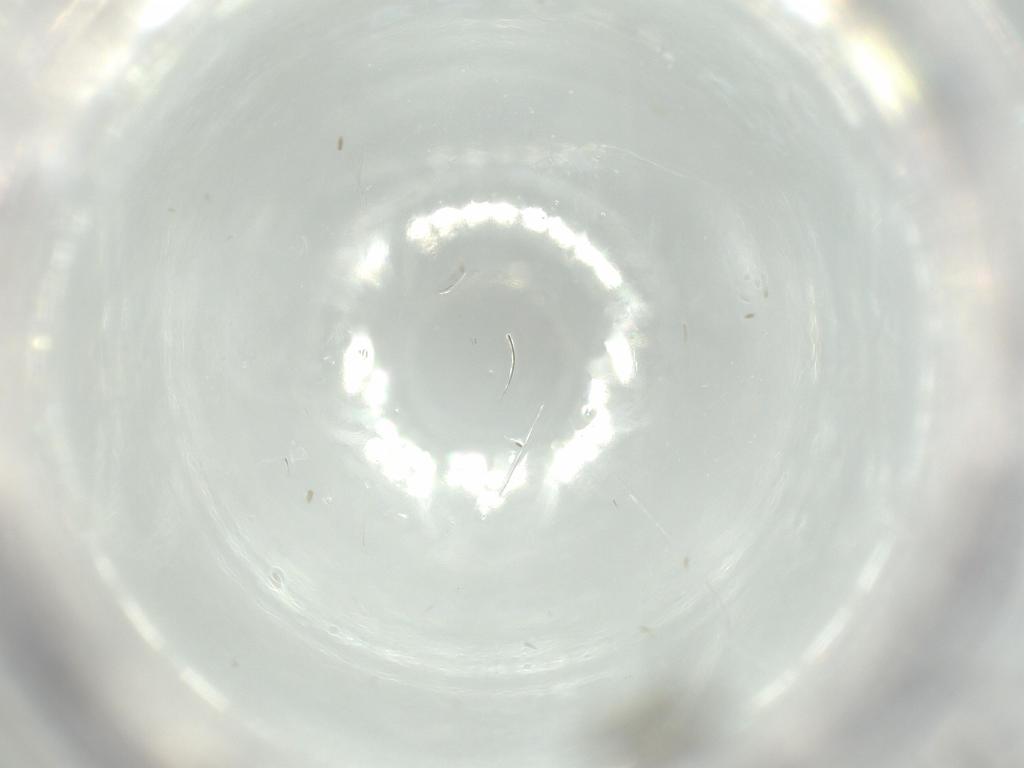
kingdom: Animalia
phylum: Arthropoda
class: Insecta
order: Hymenoptera
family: Scelionidae
